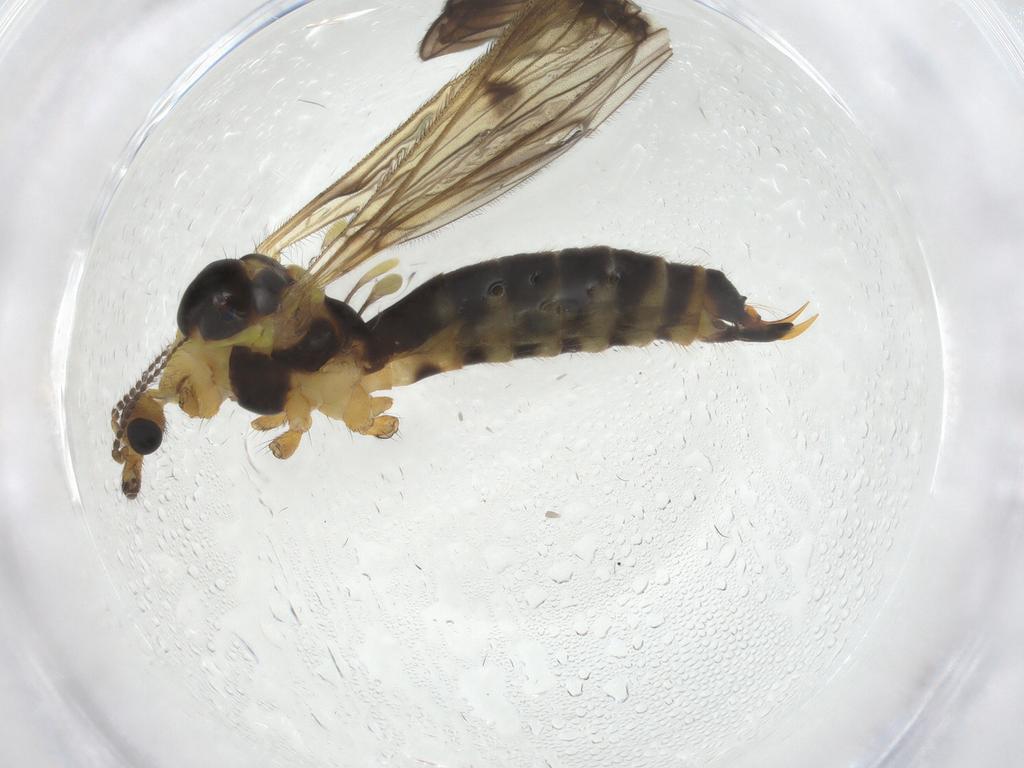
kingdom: Animalia
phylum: Arthropoda
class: Insecta
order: Diptera
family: Limoniidae
